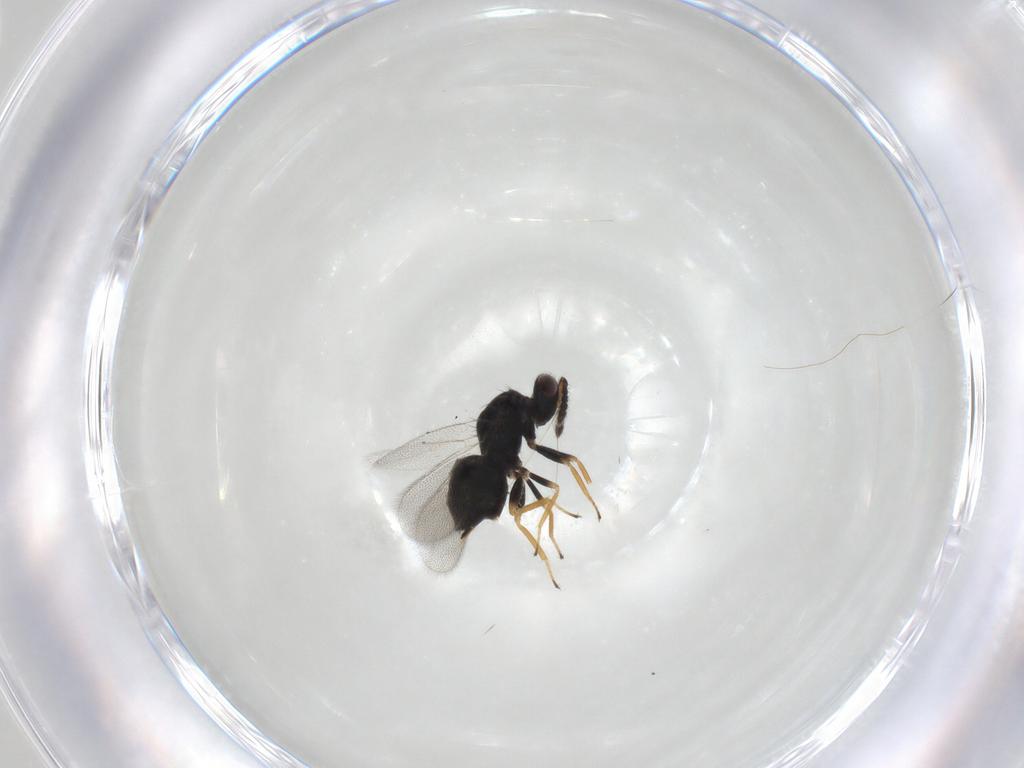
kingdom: Animalia
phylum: Arthropoda
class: Insecta
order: Hymenoptera
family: Eulophidae
